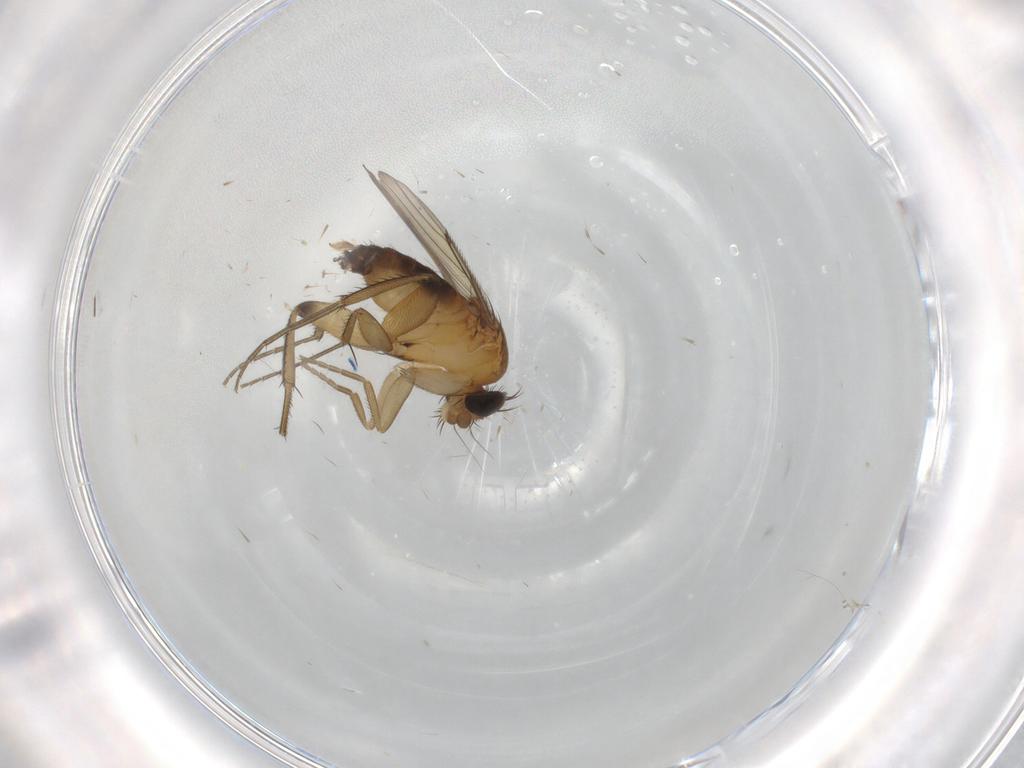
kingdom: Animalia
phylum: Arthropoda
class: Insecta
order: Diptera
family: Phoridae
